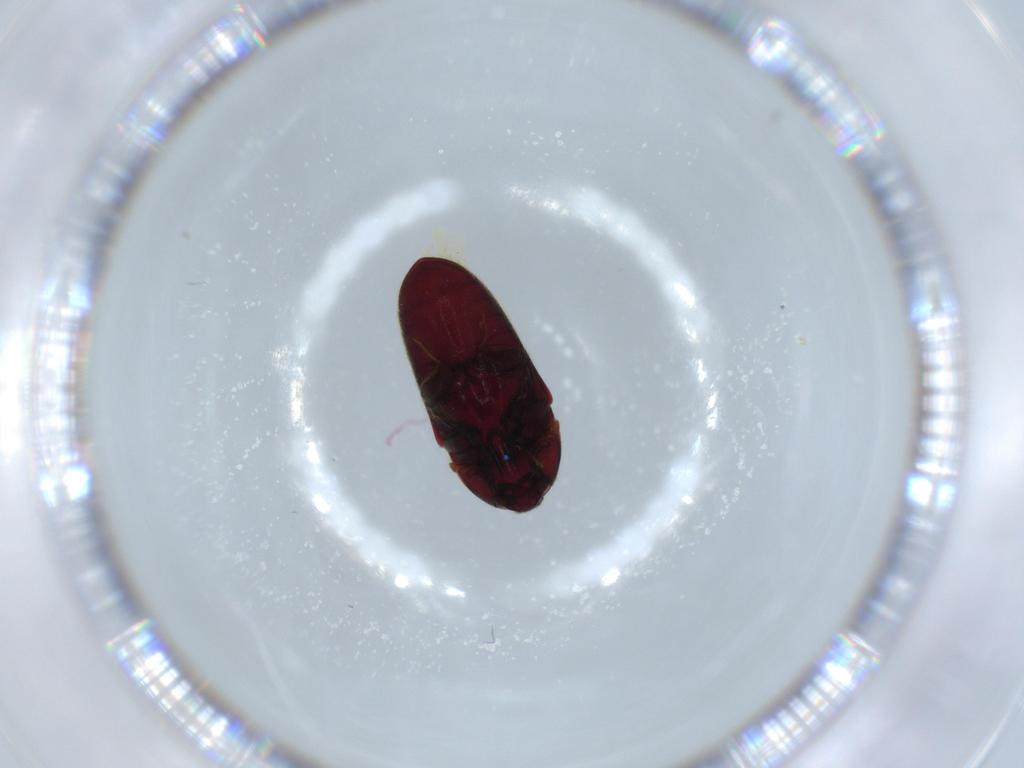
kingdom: Animalia
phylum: Arthropoda
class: Insecta
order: Coleoptera
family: Throscidae
